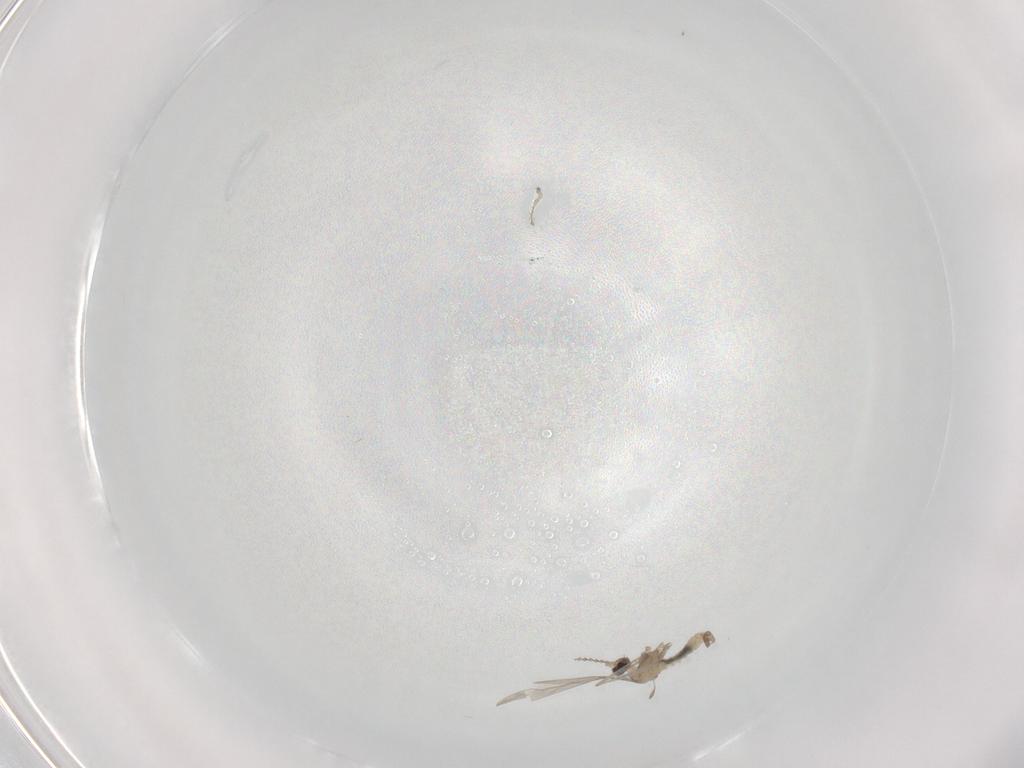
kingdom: Animalia
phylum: Arthropoda
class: Insecta
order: Diptera
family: Cecidomyiidae
